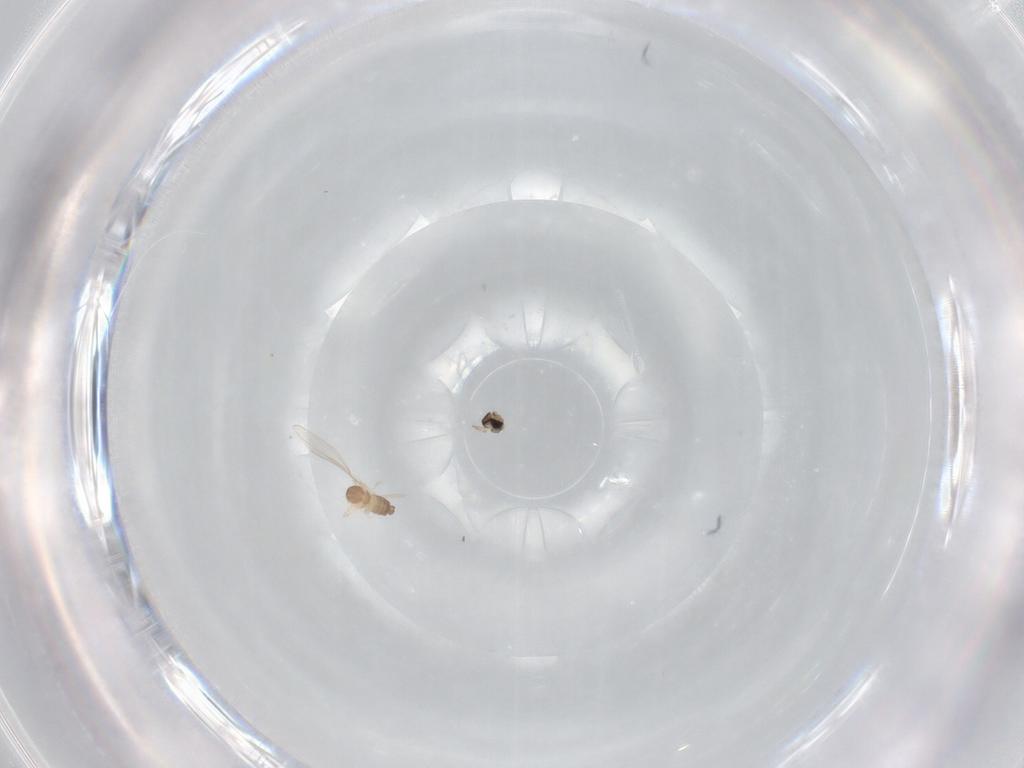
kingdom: Animalia
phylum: Arthropoda
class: Insecta
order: Diptera
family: Cecidomyiidae
